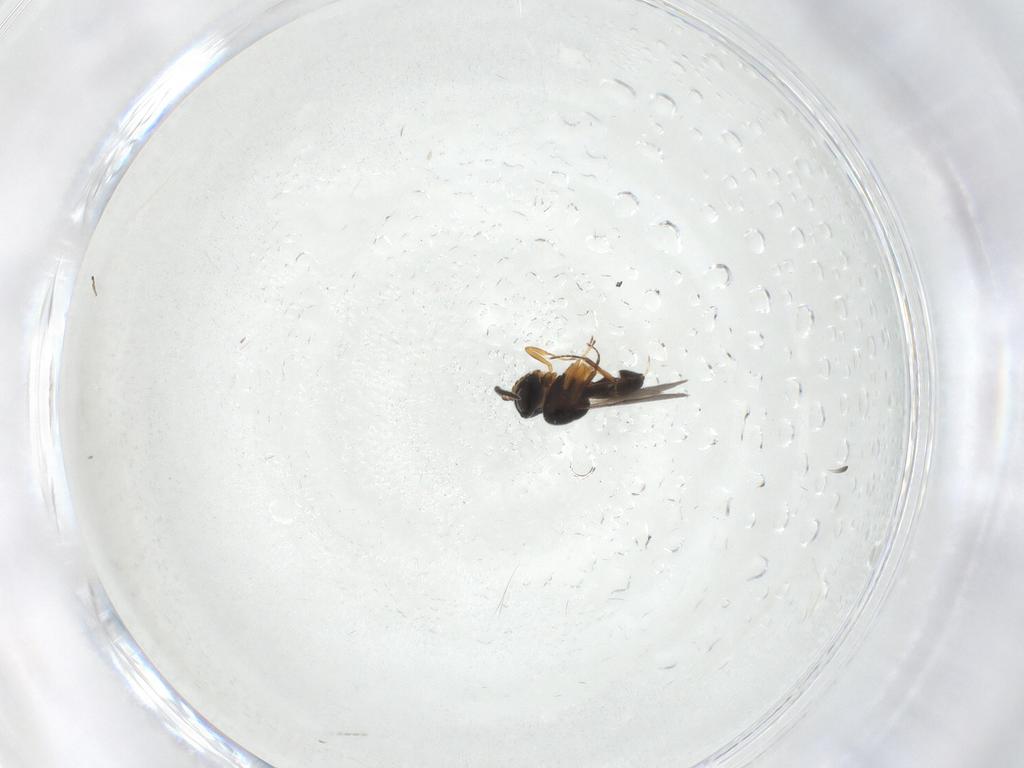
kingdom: Animalia
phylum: Arthropoda
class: Insecta
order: Hymenoptera
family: Scelionidae
